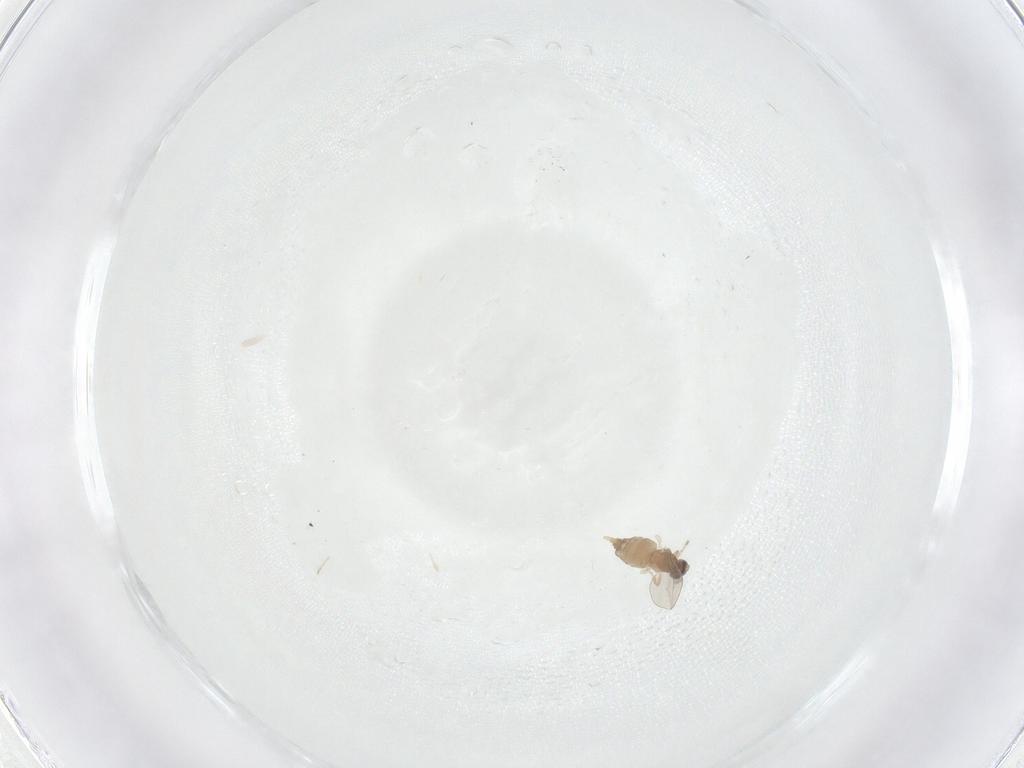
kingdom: Animalia
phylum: Arthropoda
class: Insecta
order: Diptera
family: Cecidomyiidae
